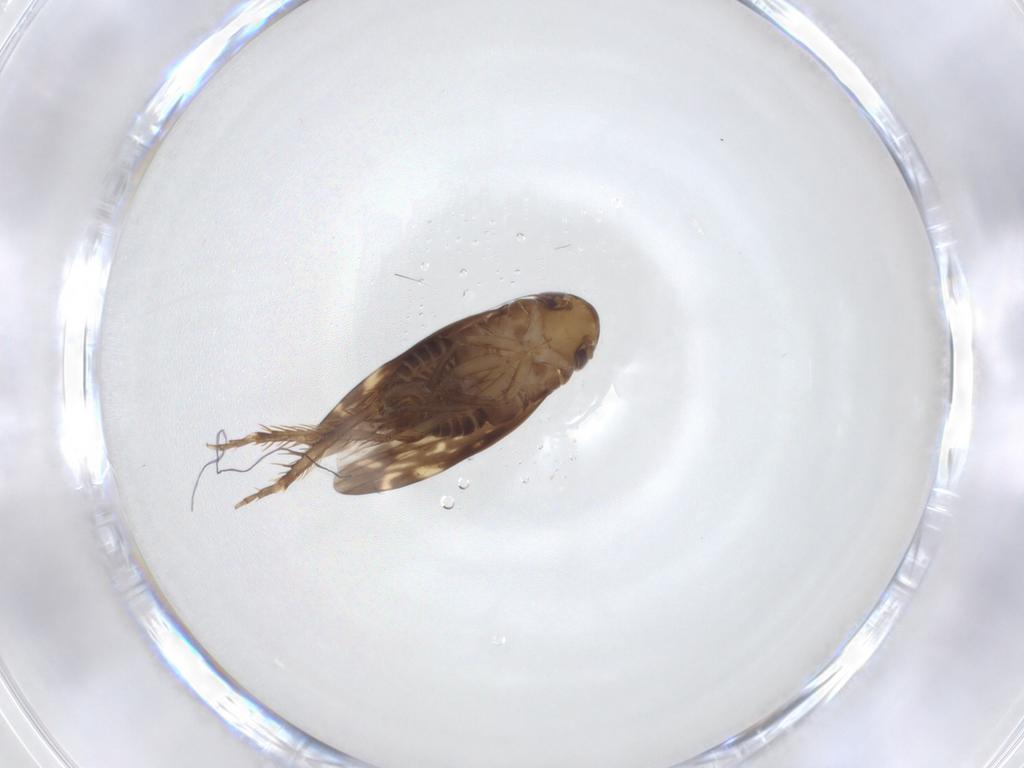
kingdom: Animalia
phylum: Arthropoda
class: Insecta
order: Hemiptera
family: Cicadellidae
